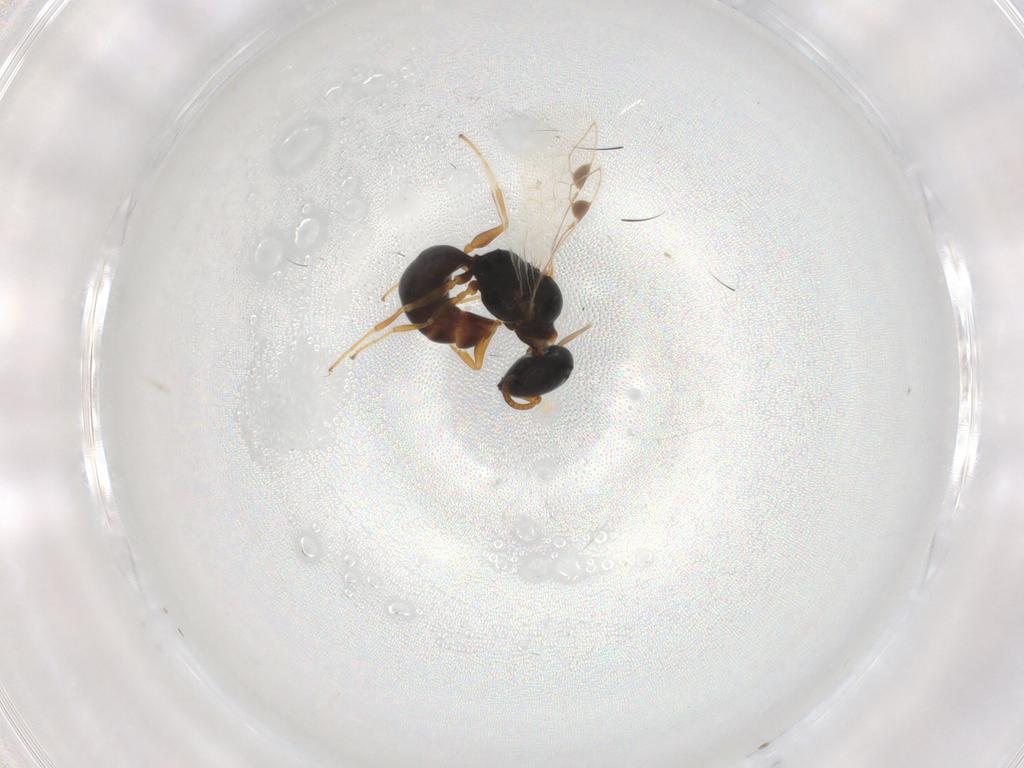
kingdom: Animalia
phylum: Arthropoda
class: Insecta
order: Hymenoptera
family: Pemphredonidae
